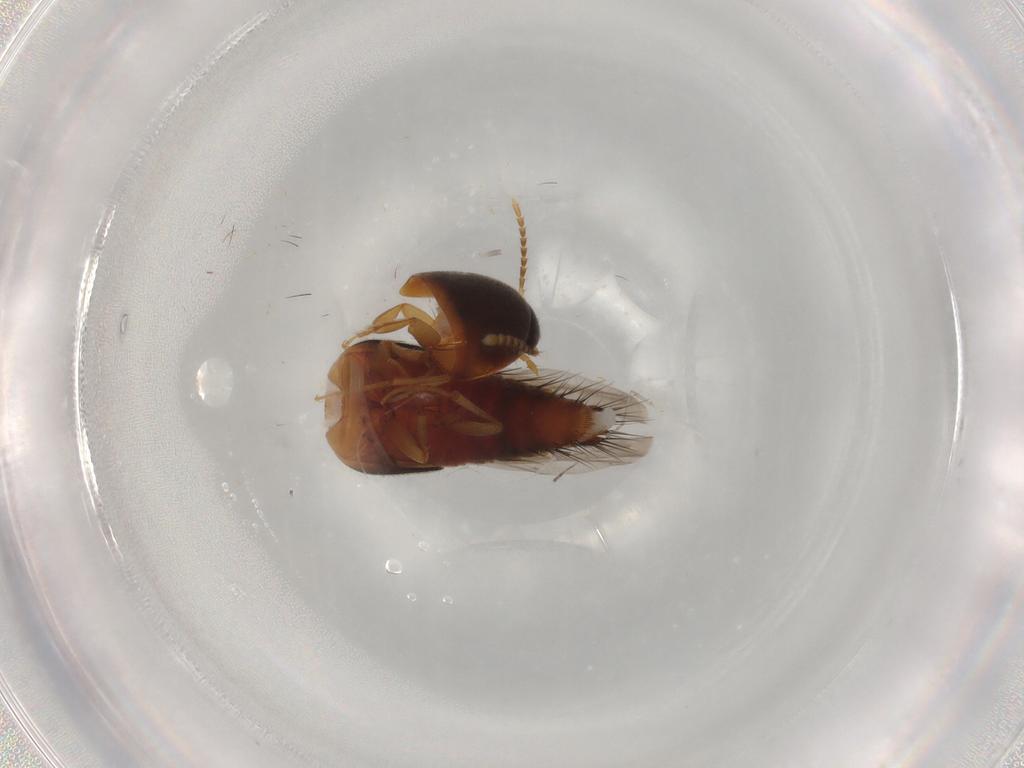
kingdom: Animalia
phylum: Arthropoda
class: Insecta
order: Coleoptera
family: Staphylinidae
